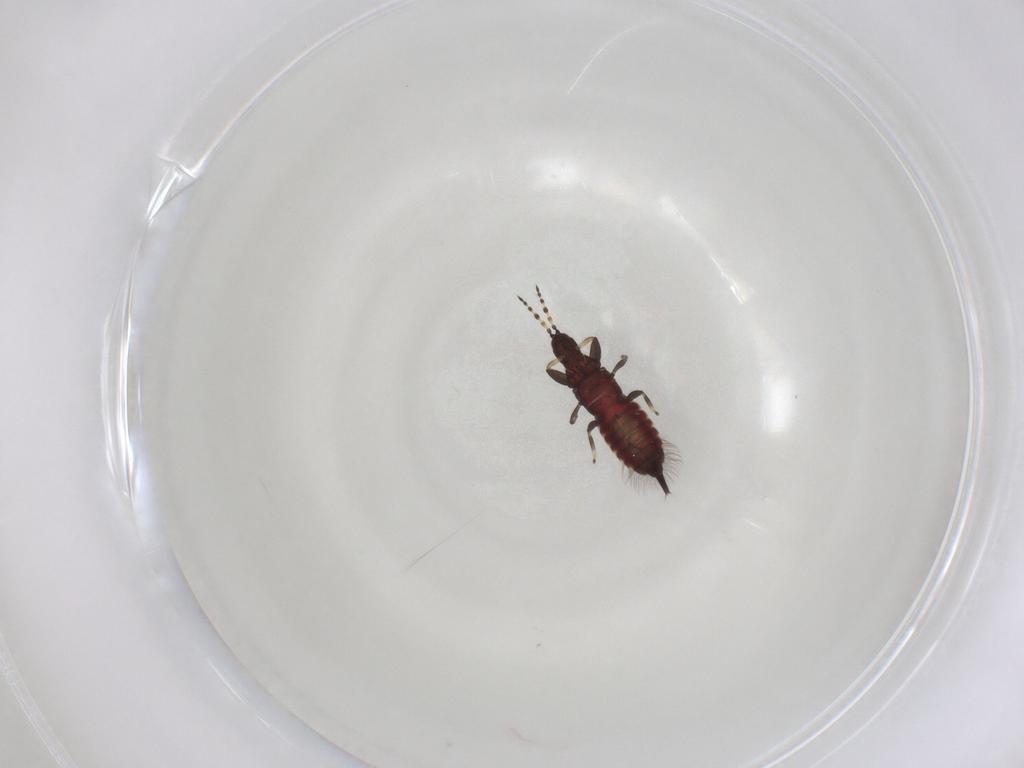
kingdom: Animalia
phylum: Arthropoda
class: Insecta
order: Thysanoptera
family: Phlaeothripidae
